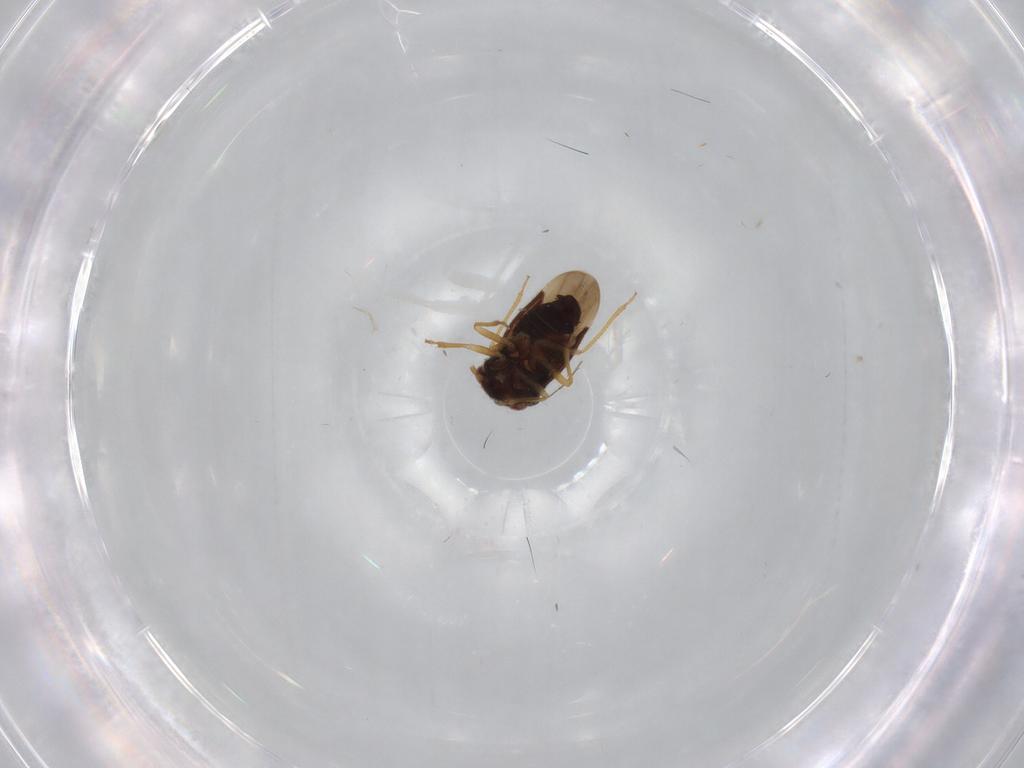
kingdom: Animalia
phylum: Arthropoda
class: Insecta
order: Hemiptera
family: Schizopteridae
